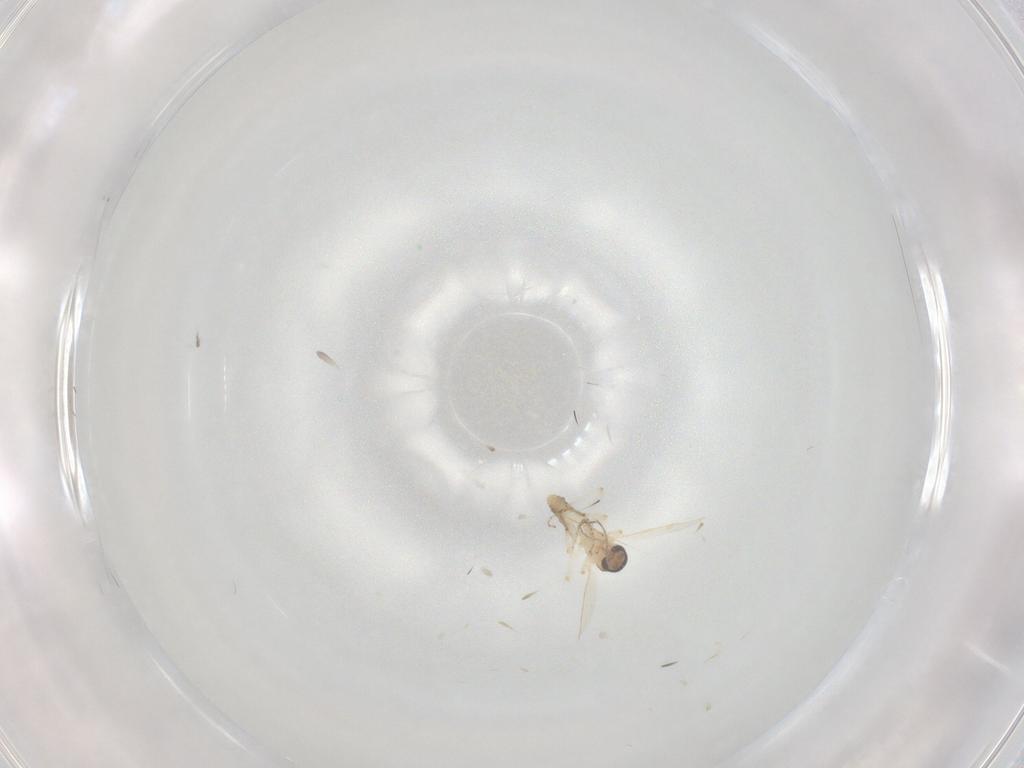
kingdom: Animalia
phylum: Arthropoda
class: Insecta
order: Diptera
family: Ceratopogonidae
